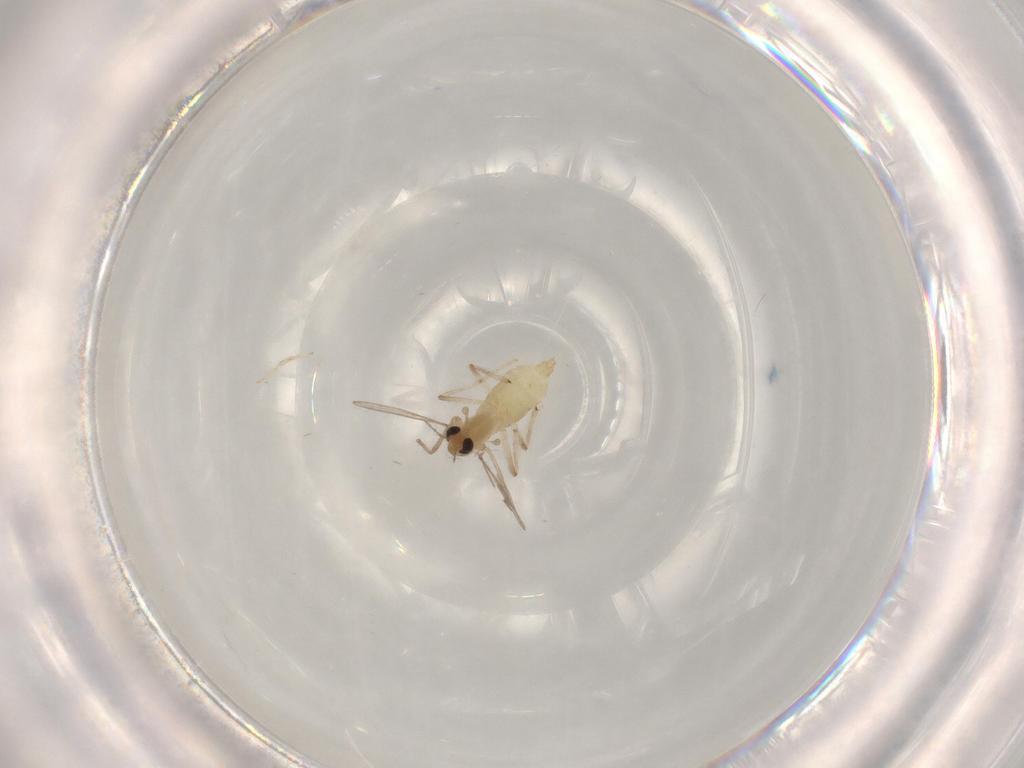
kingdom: Animalia
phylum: Arthropoda
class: Insecta
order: Diptera
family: Chironomidae
